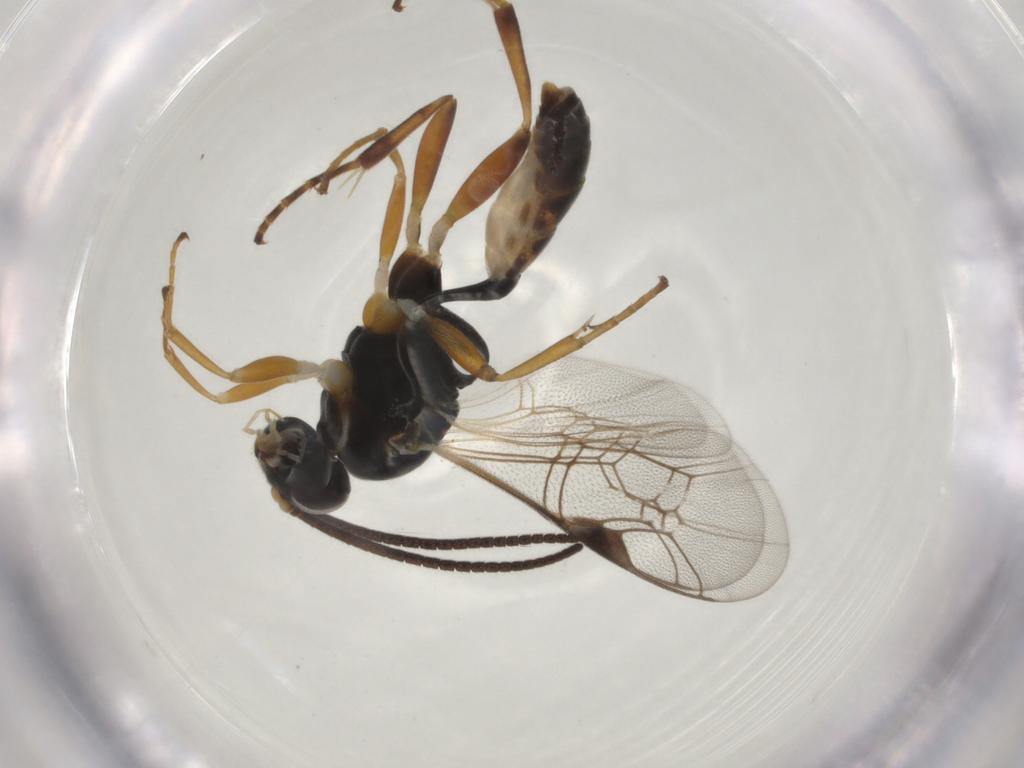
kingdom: Animalia
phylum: Arthropoda
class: Insecta
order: Hymenoptera
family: Ichneumonidae
